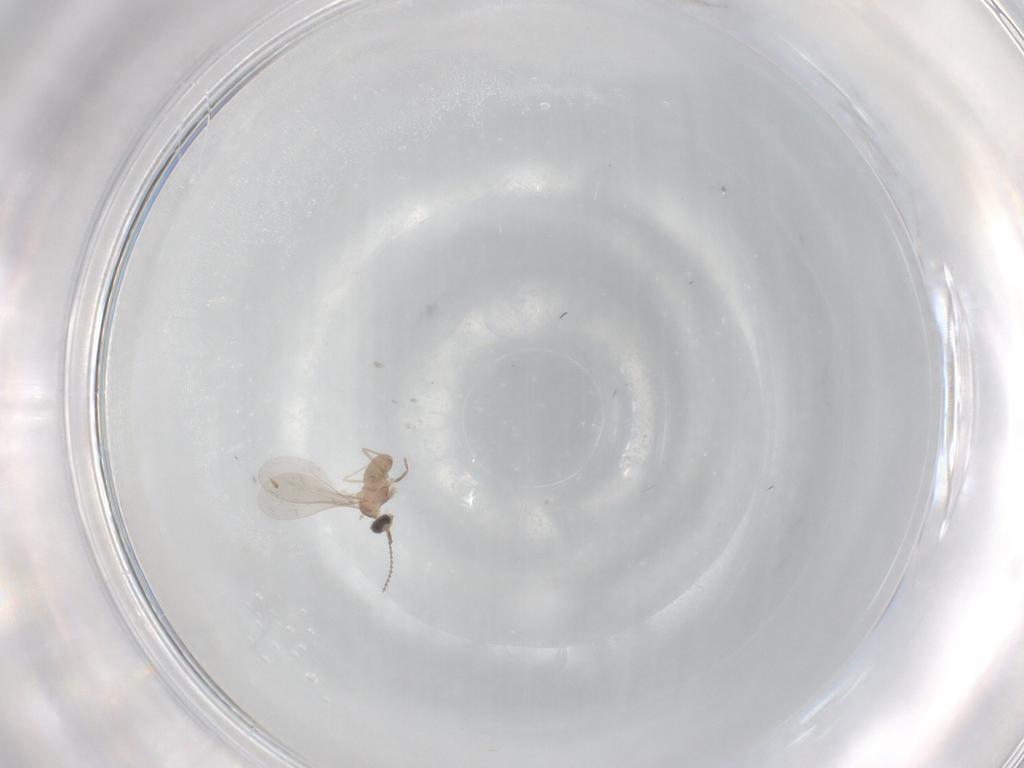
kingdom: Animalia
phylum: Arthropoda
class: Insecta
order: Diptera
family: Cecidomyiidae
